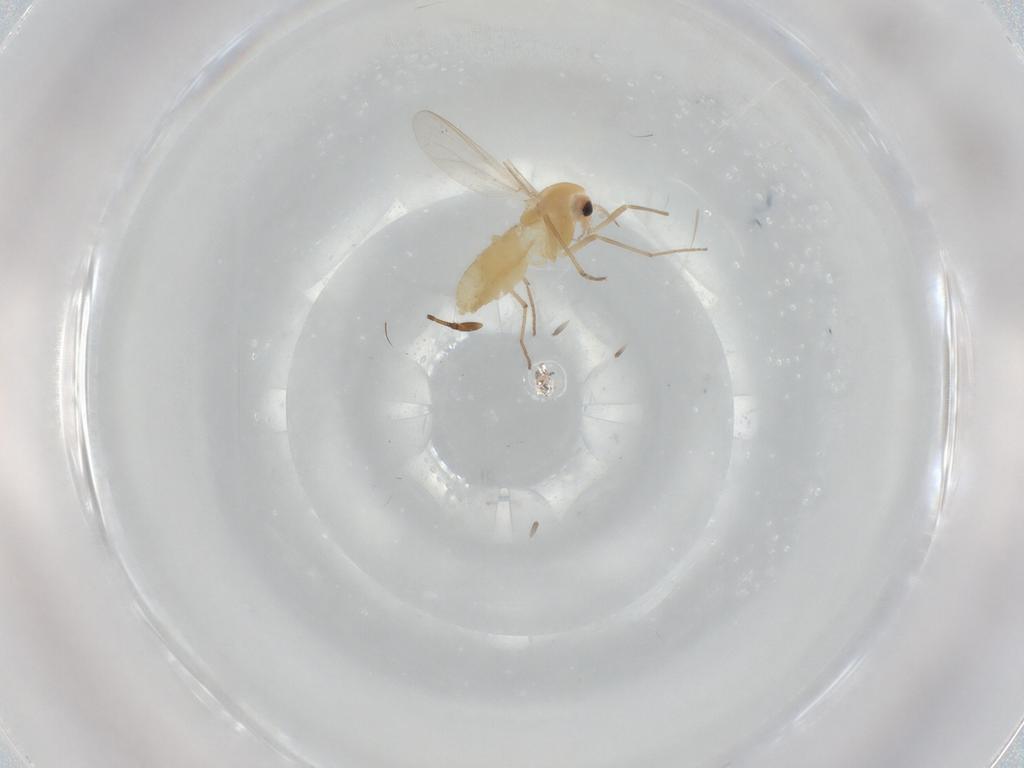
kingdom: Animalia
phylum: Arthropoda
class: Insecta
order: Diptera
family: Chironomidae
